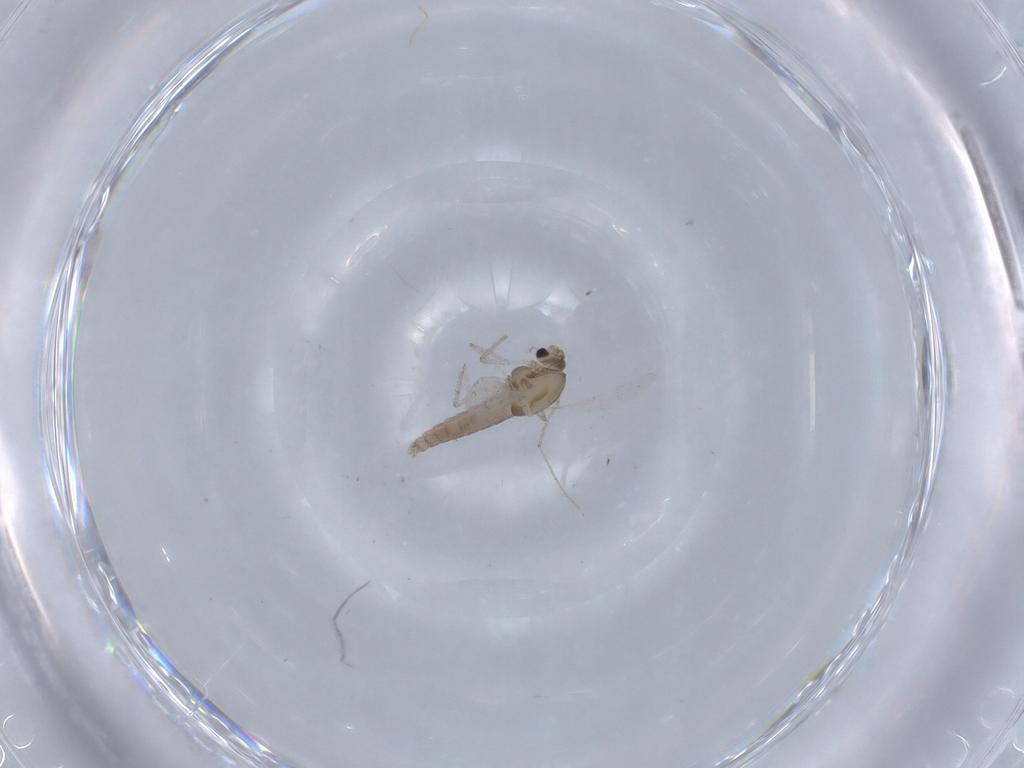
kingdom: Animalia
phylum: Arthropoda
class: Insecta
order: Diptera
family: Chironomidae
